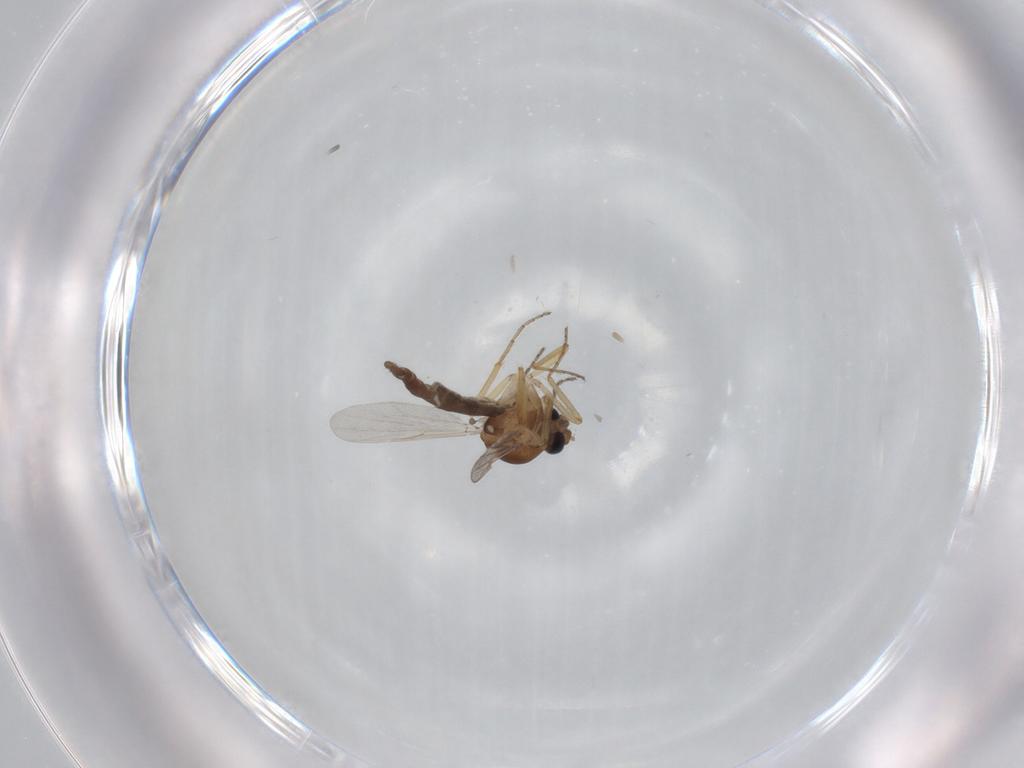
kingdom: Animalia
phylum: Arthropoda
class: Insecta
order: Diptera
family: Ceratopogonidae
